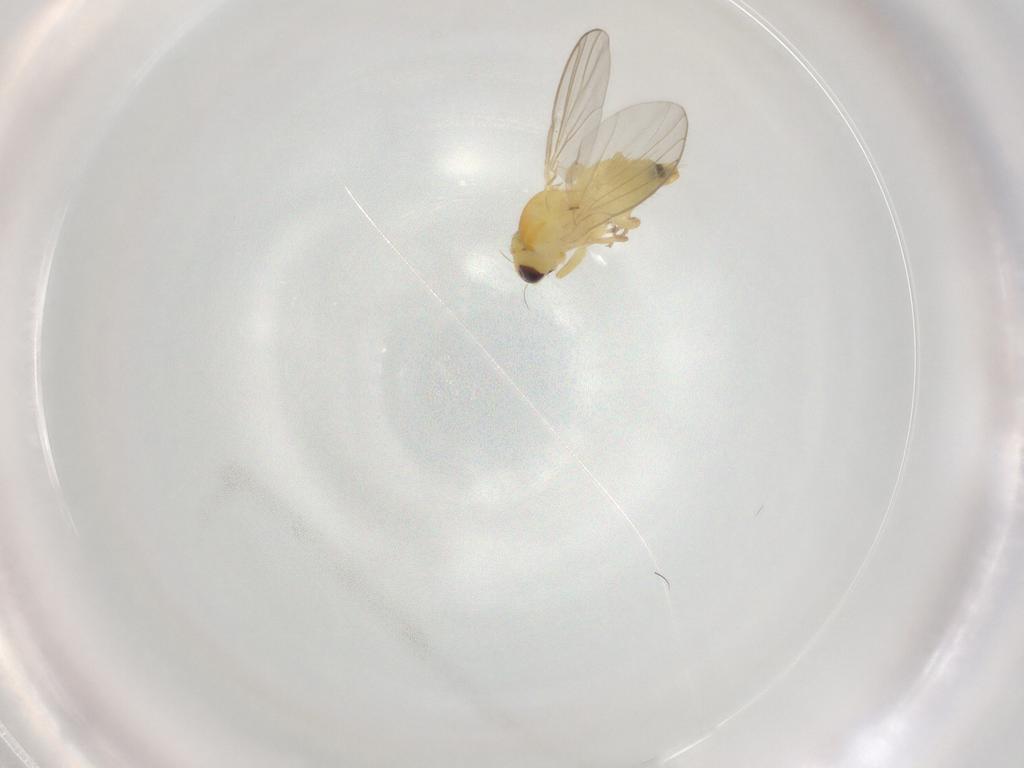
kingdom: Animalia
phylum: Arthropoda
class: Insecta
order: Diptera
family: Agromyzidae
